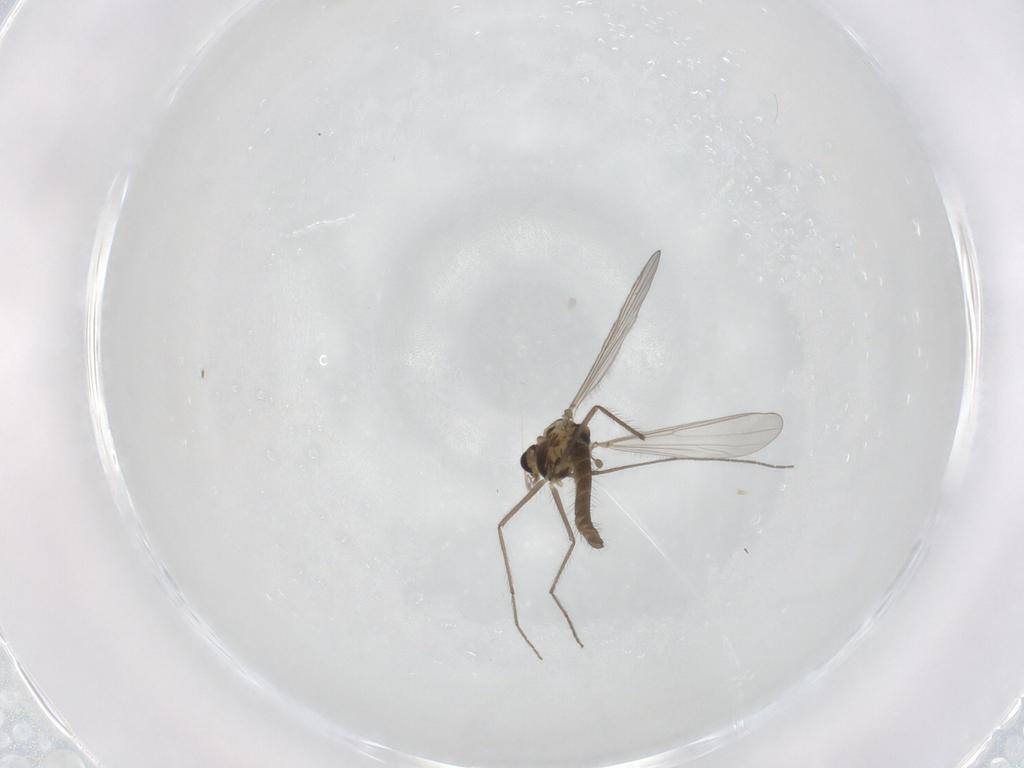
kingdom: Animalia
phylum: Arthropoda
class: Insecta
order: Diptera
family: Chironomidae
